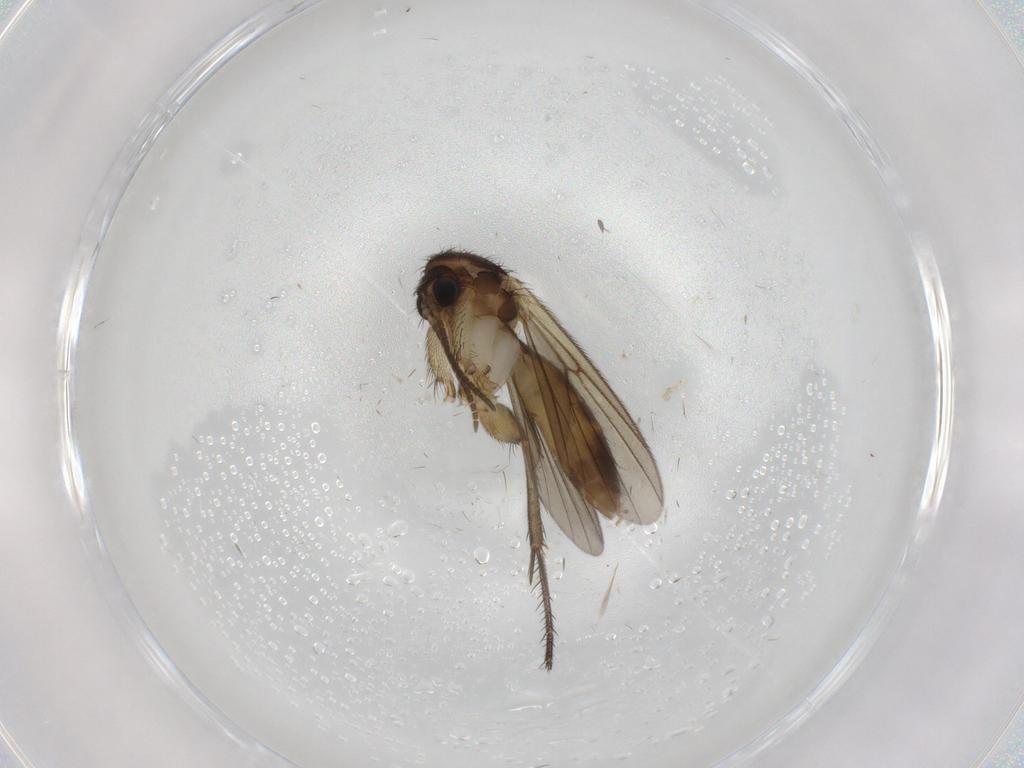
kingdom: Animalia
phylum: Arthropoda
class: Insecta
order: Diptera
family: Mycetophilidae
